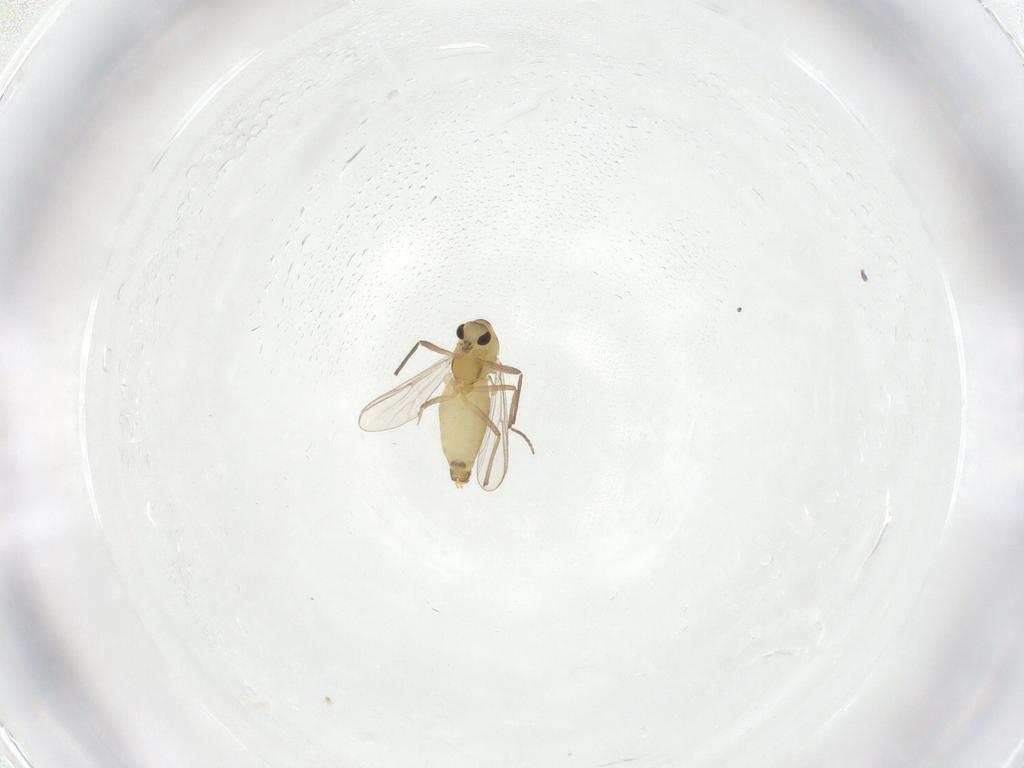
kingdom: Animalia
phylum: Arthropoda
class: Insecta
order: Diptera
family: Chironomidae
